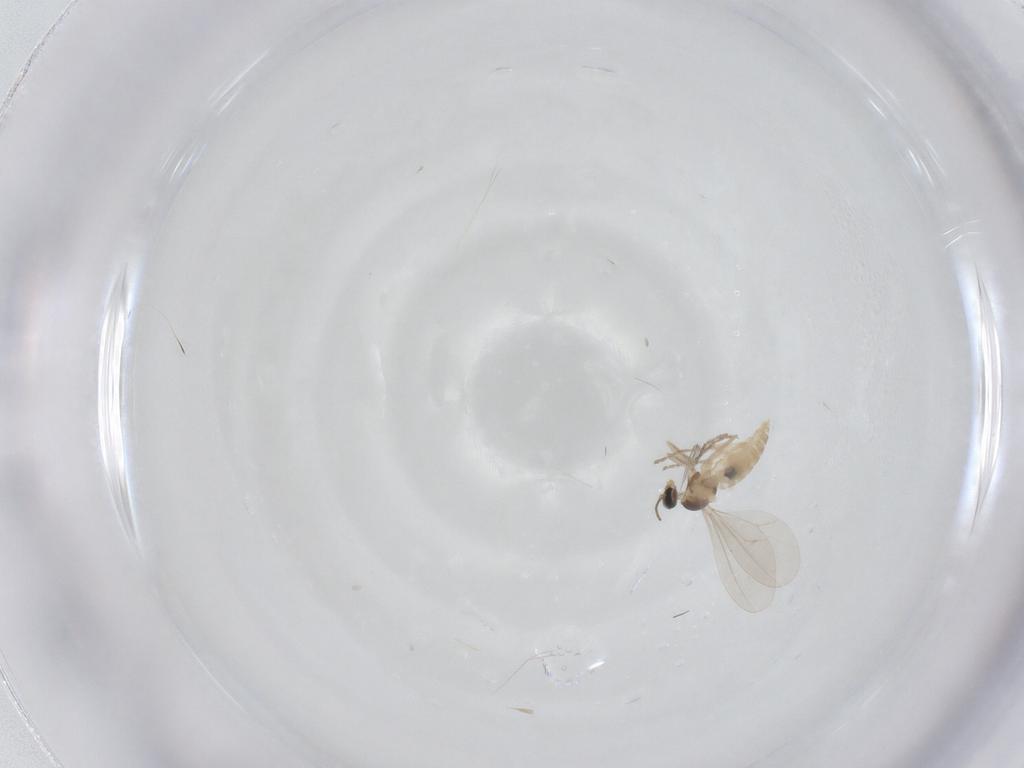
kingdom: Animalia
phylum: Arthropoda
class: Insecta
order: Diptera
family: Cecidomyiidae
